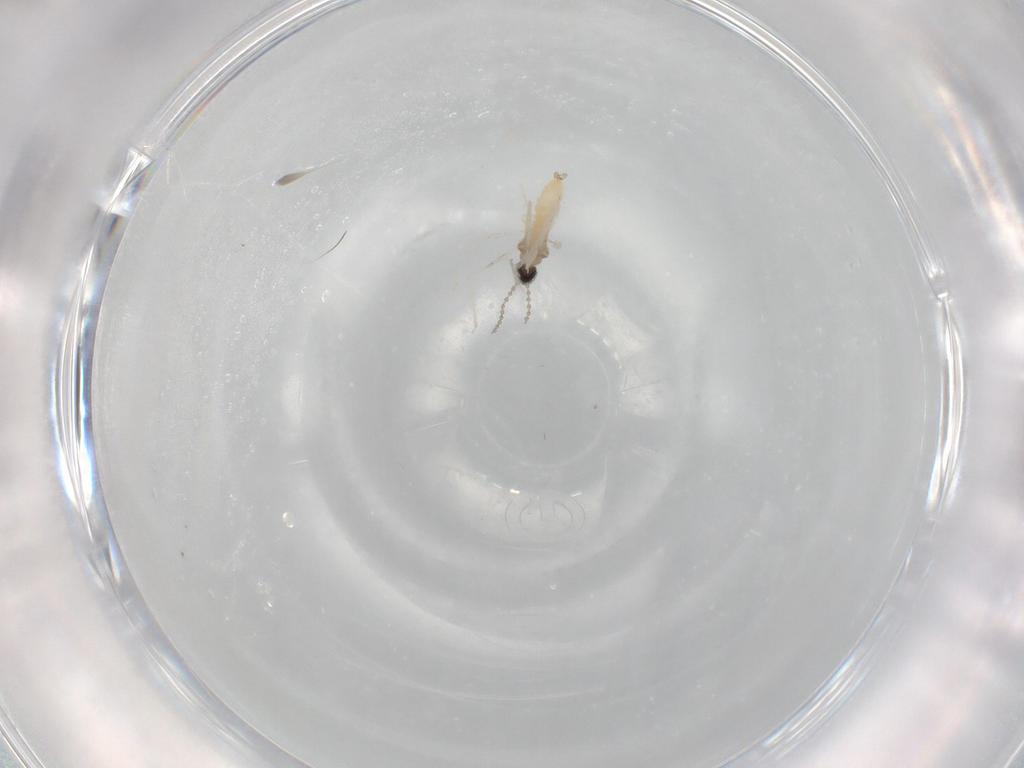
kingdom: Animalia
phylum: Arthropoda
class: Insecta
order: Diptera
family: Cecidomyiidae
